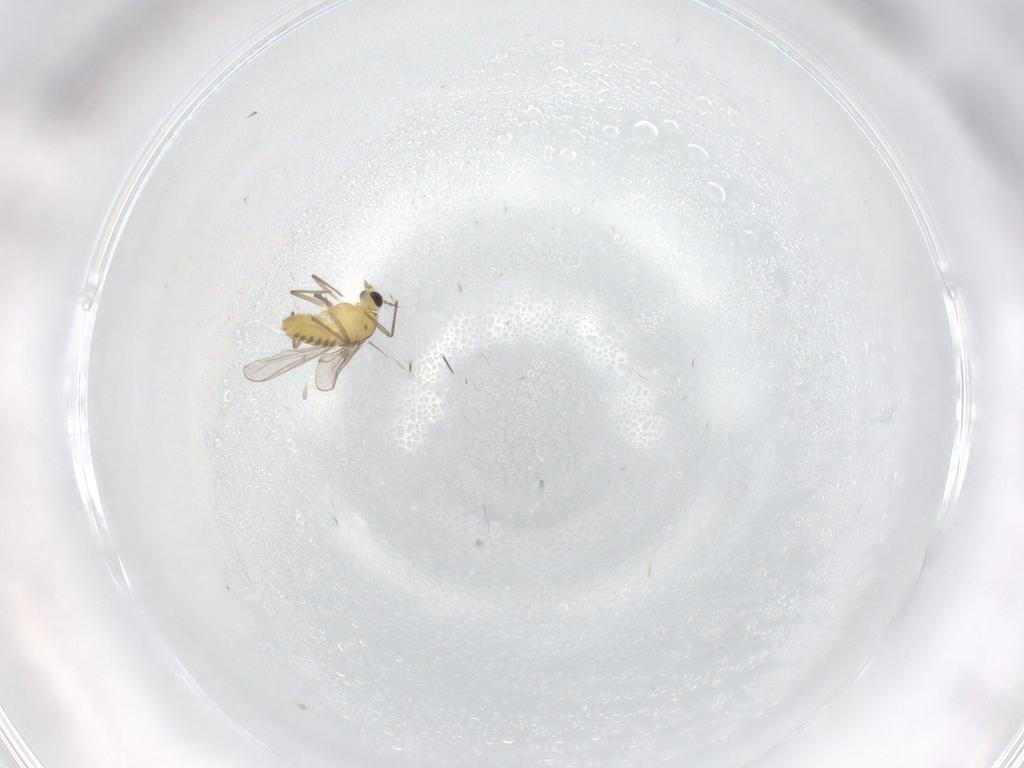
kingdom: Animalia
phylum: Arthropoda
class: Insecta
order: Diptera
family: Sciaridae
